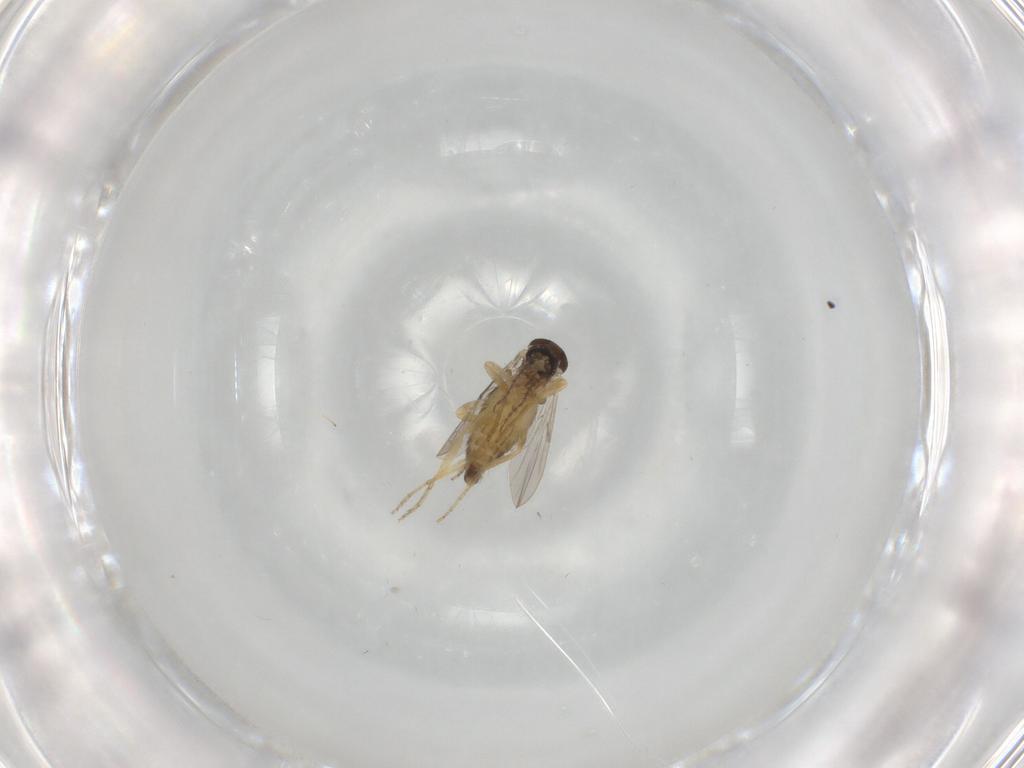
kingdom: Animalia
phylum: Arthropoda
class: Insecta
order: Diptera
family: Ceratopogonidae
